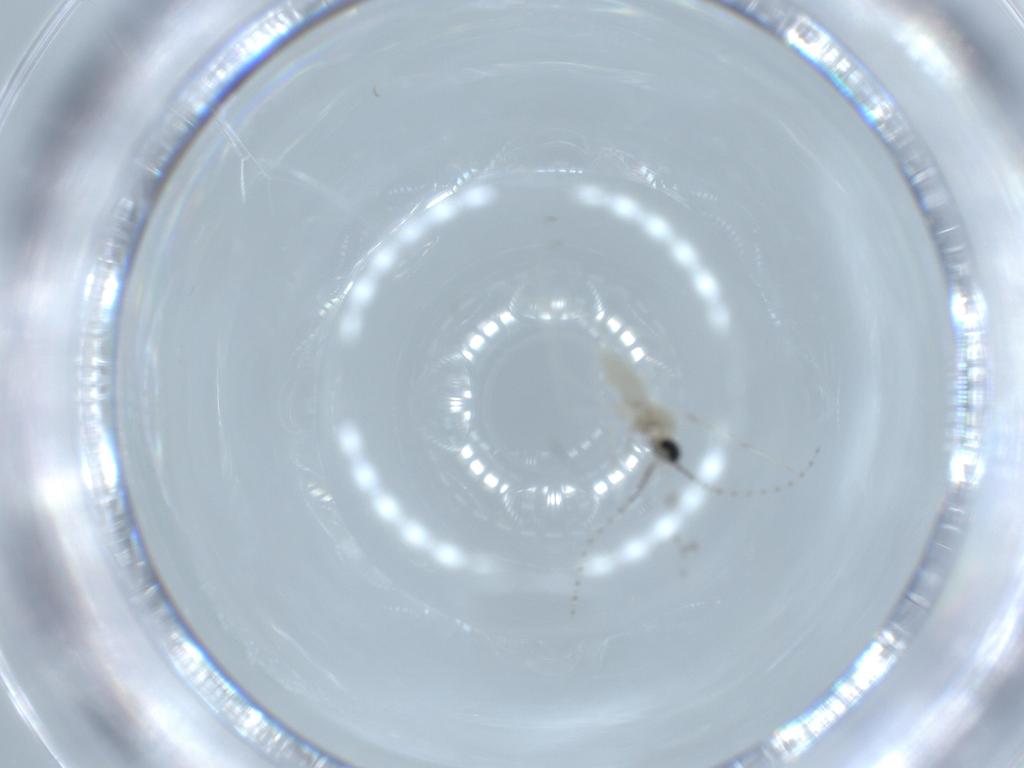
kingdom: Animalia
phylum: Arthropoda
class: Insecta
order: Diptera
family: Cecidomyiidae
